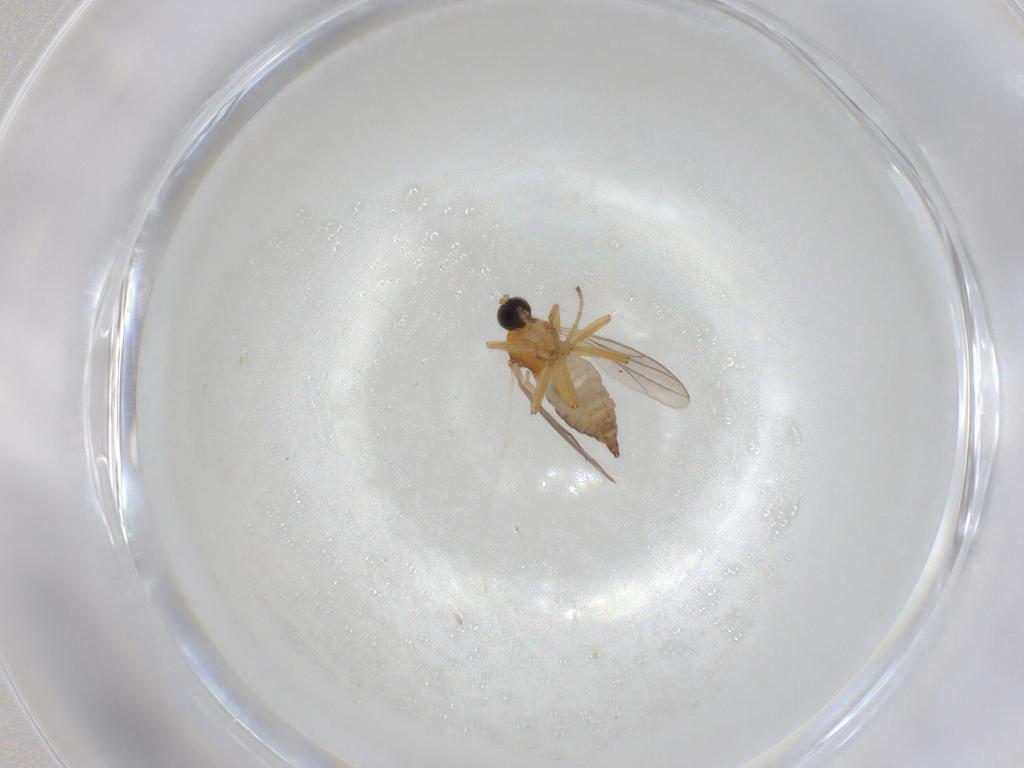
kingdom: Animalia
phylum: Arthropoda
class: Insecta
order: Diptera
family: Hybotidae
